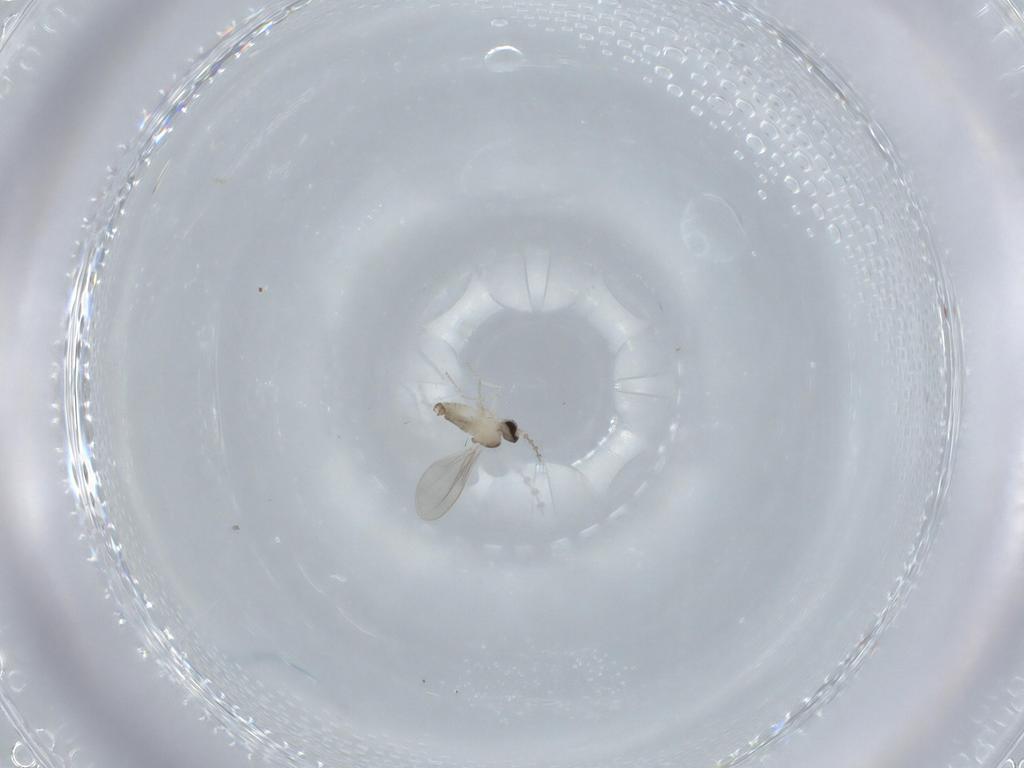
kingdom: Animalia
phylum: Arthropoda
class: Insecta
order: Diptera
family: Cecidomyiidae
